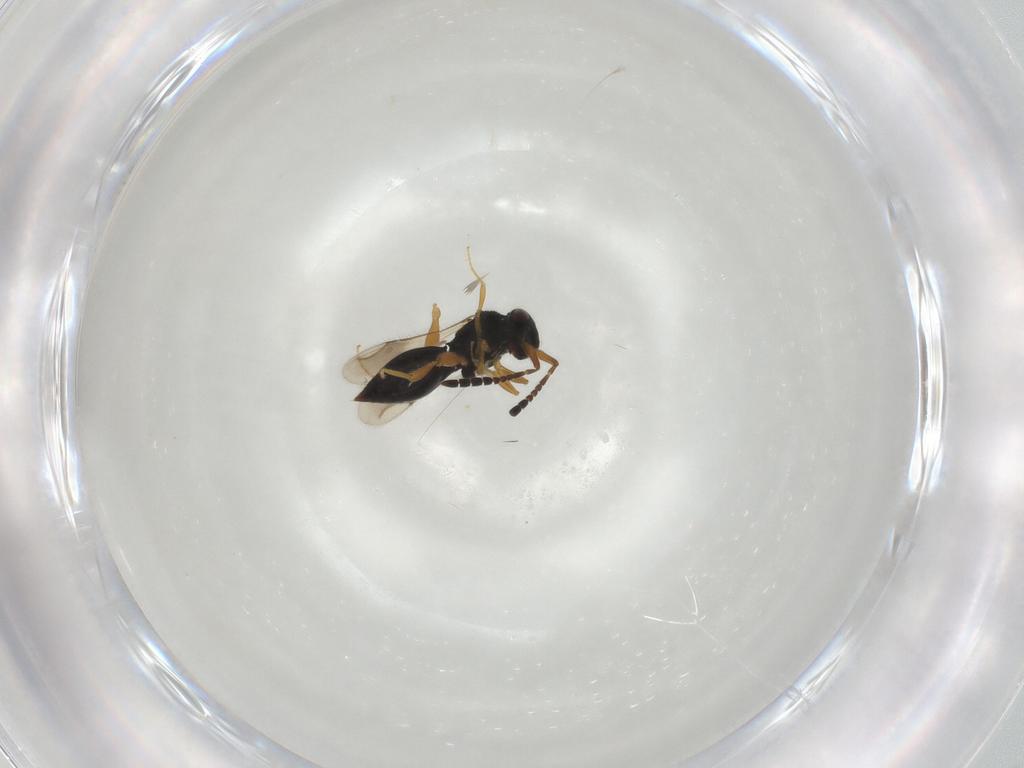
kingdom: Animalia
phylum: Arthropoda
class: Insecta
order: Hymenoptera
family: Ceraphronidae
